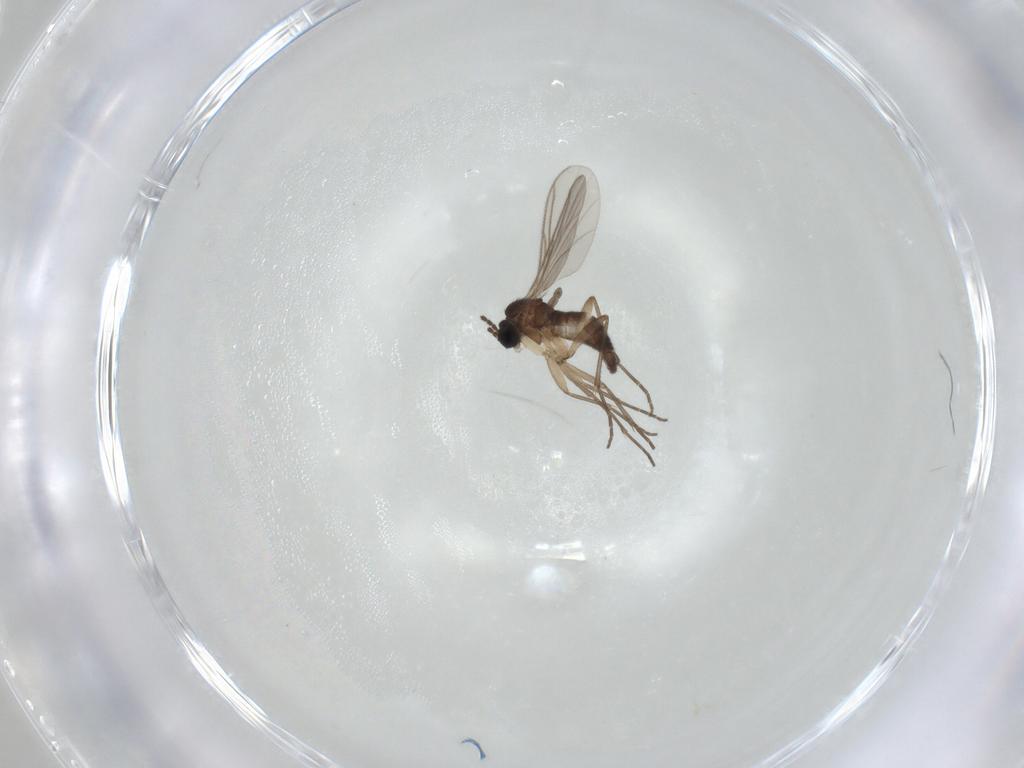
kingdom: Animalia
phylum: Arthropoda
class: Insecta
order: Diptera
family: Sciaridae
